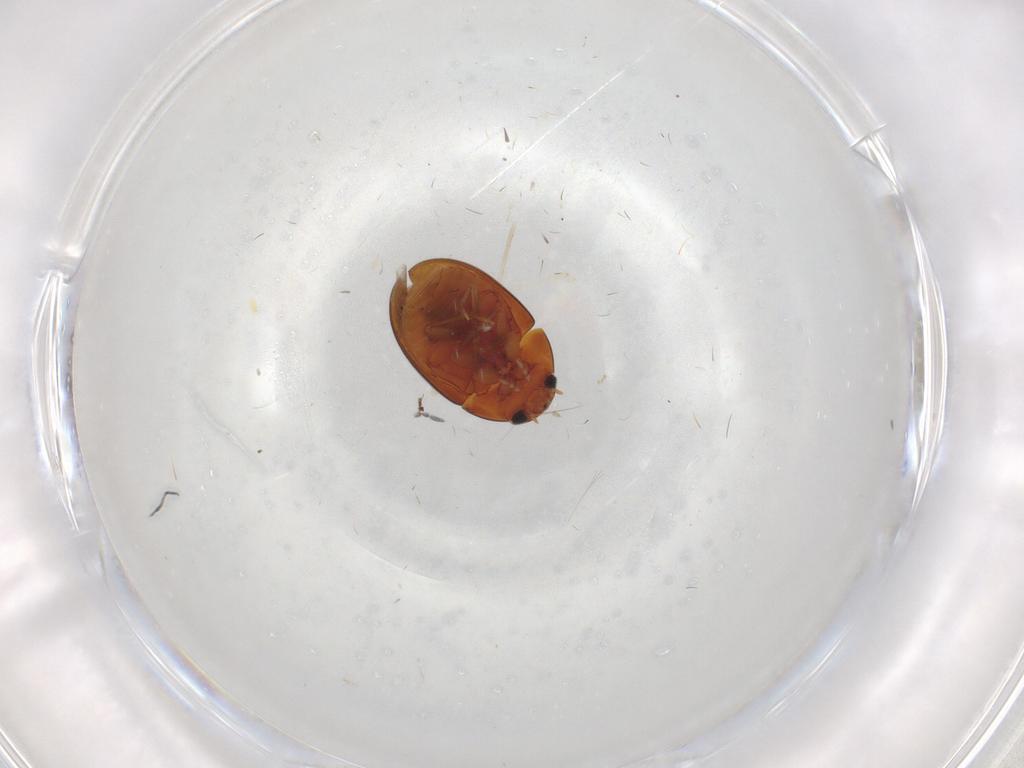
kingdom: Animalia
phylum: Arthropoda
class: Insecta
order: Coleoptera
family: Phalacridae
